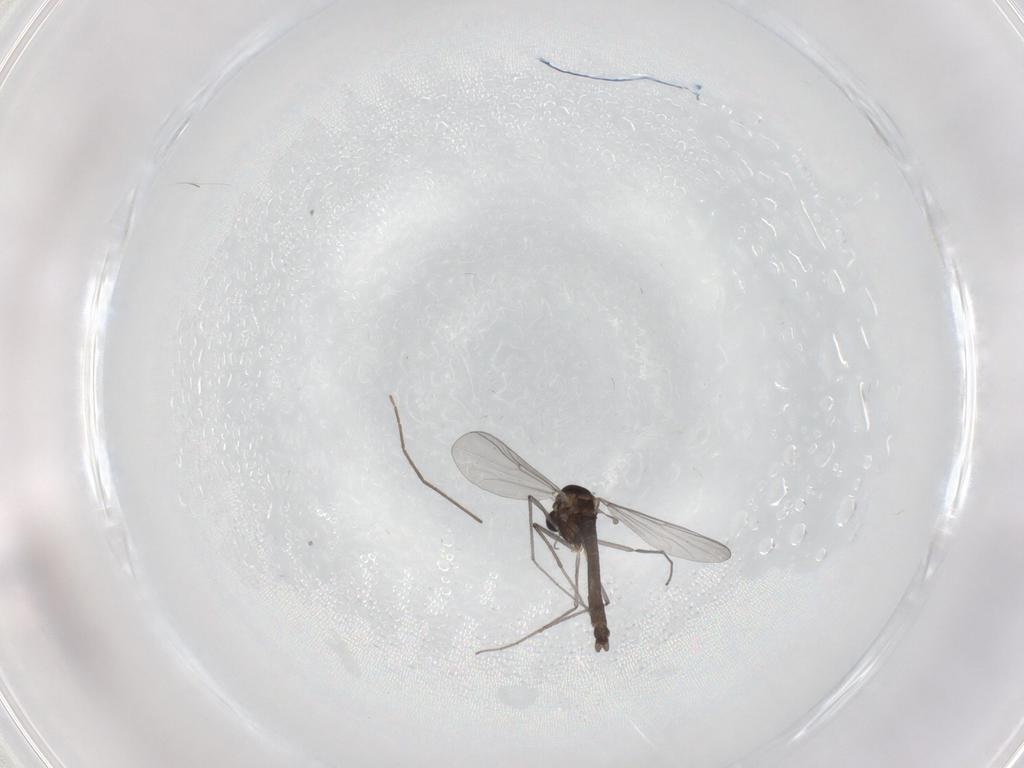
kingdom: Animalia
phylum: Arthropoda
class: Insecta
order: Diptera
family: Chironomidae
